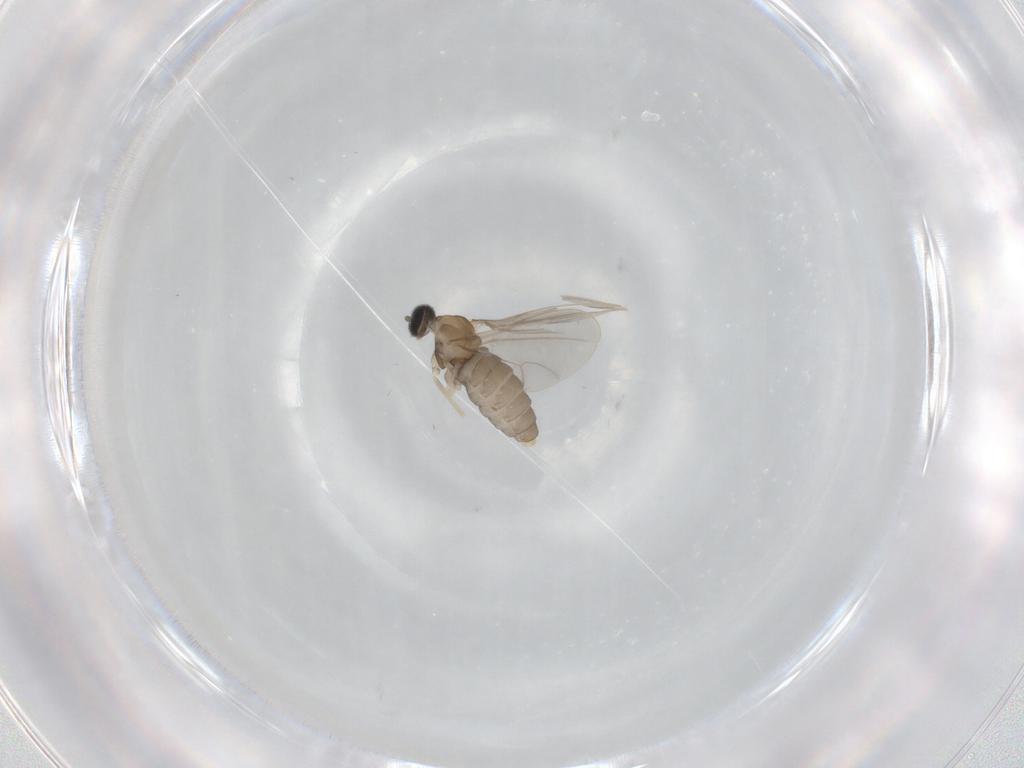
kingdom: Animalia
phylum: Arthropoda
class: Insecta
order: Diptera
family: Cecidomyiidae
